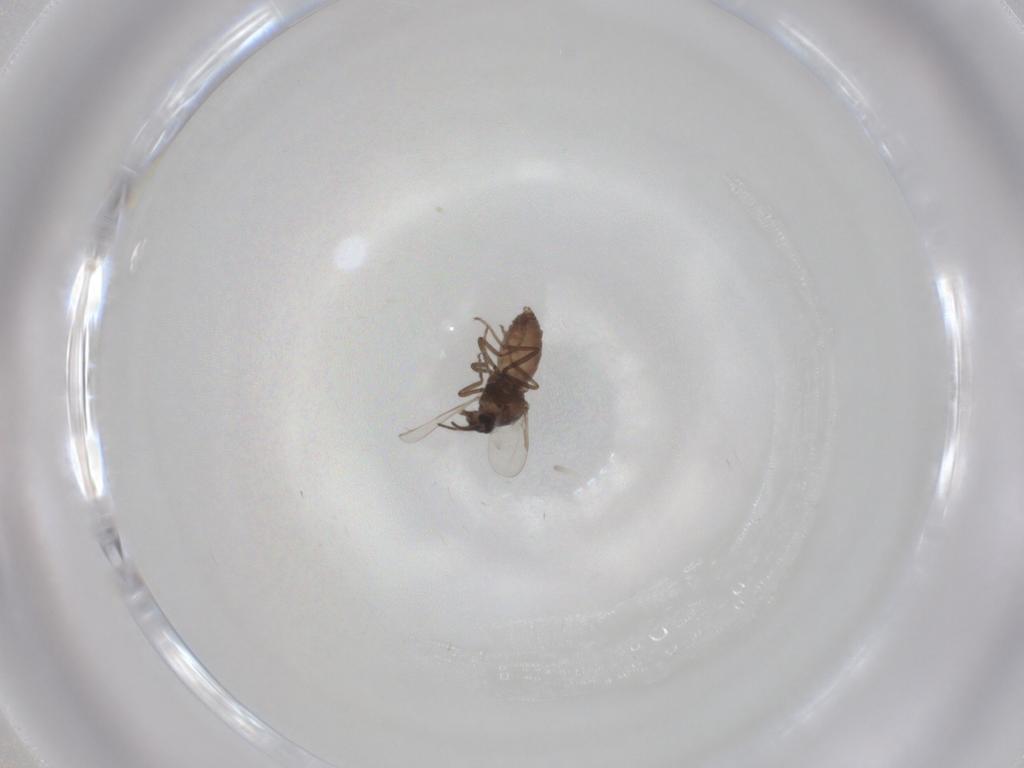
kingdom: Animalia
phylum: Arthropoda
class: Insecta
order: Diptera
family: Ceratopogonidae
